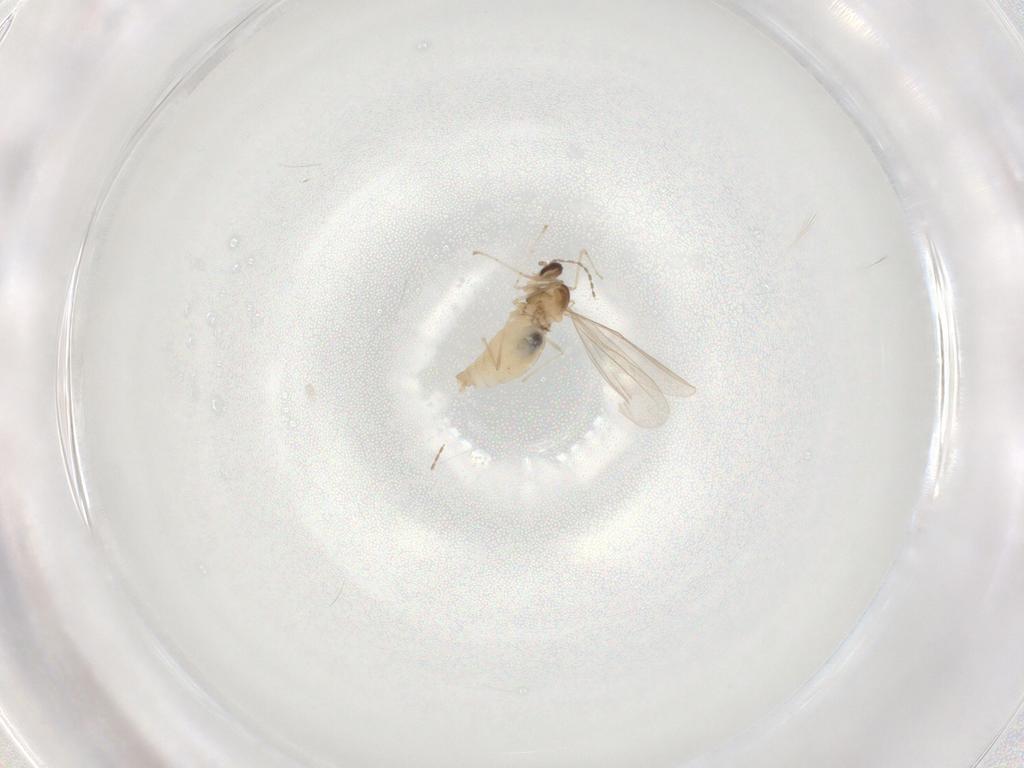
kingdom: Animalia
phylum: Arthropoda
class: Insecta
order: Diptera
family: Cecidomyiidae
